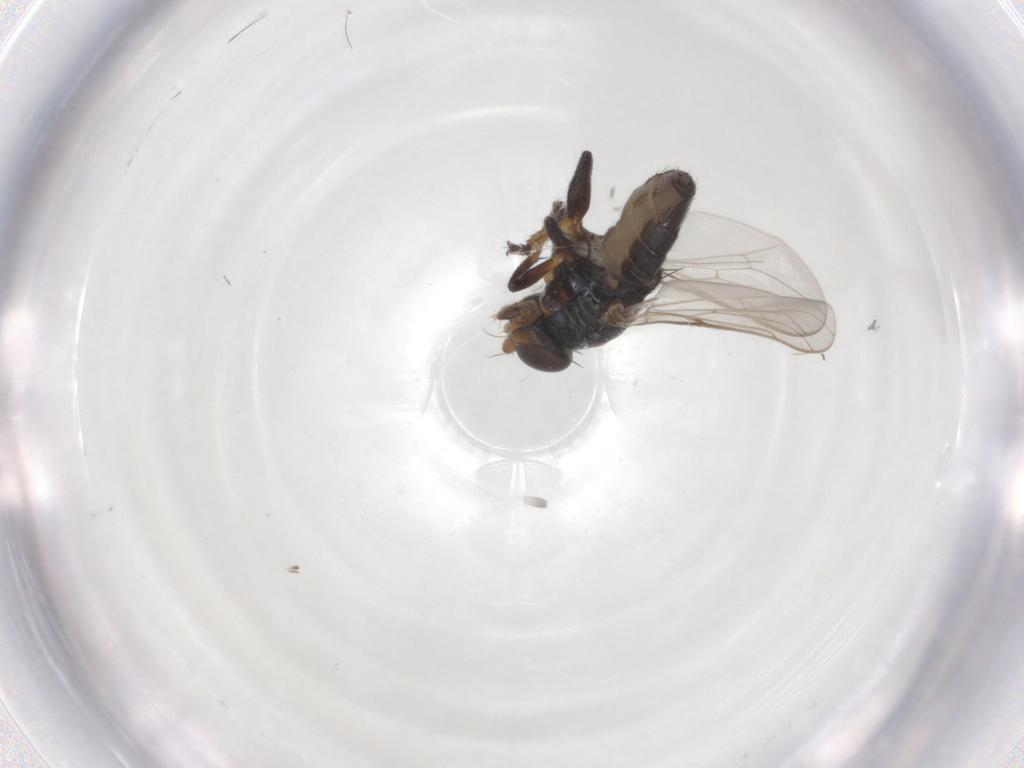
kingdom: Animalia
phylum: Arthropoda
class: Insecta
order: Diptera
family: Chloropidae
